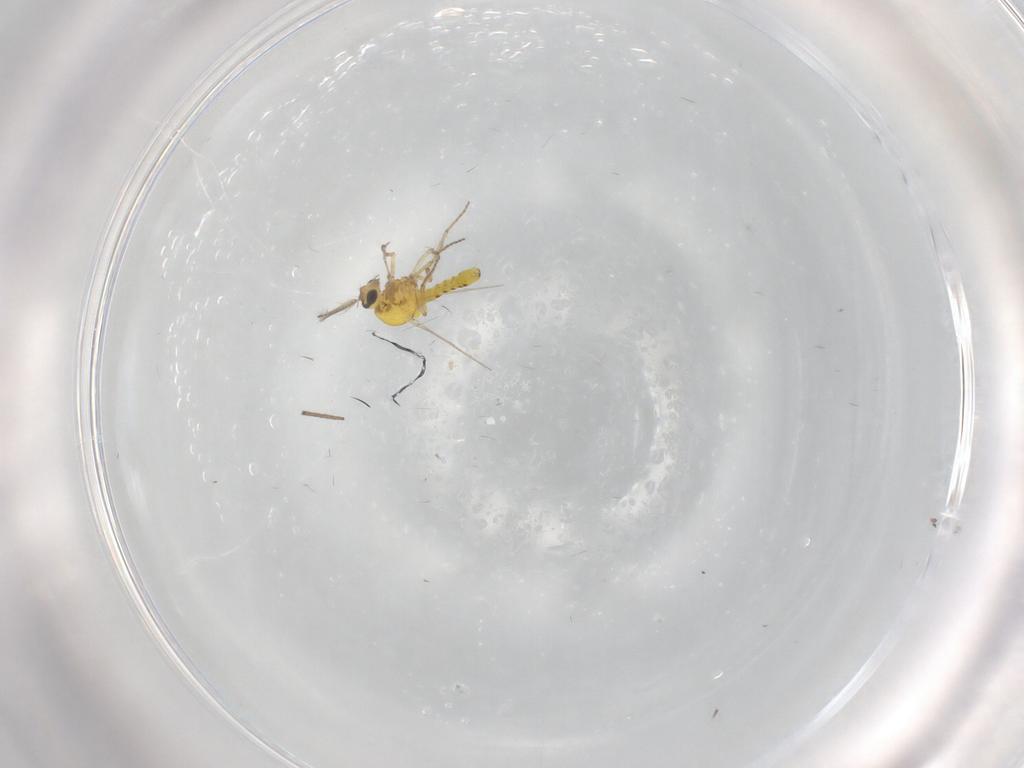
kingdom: Animalia
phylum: Arthropoda
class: Insecta
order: Diptera
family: Ceratopogonidae
